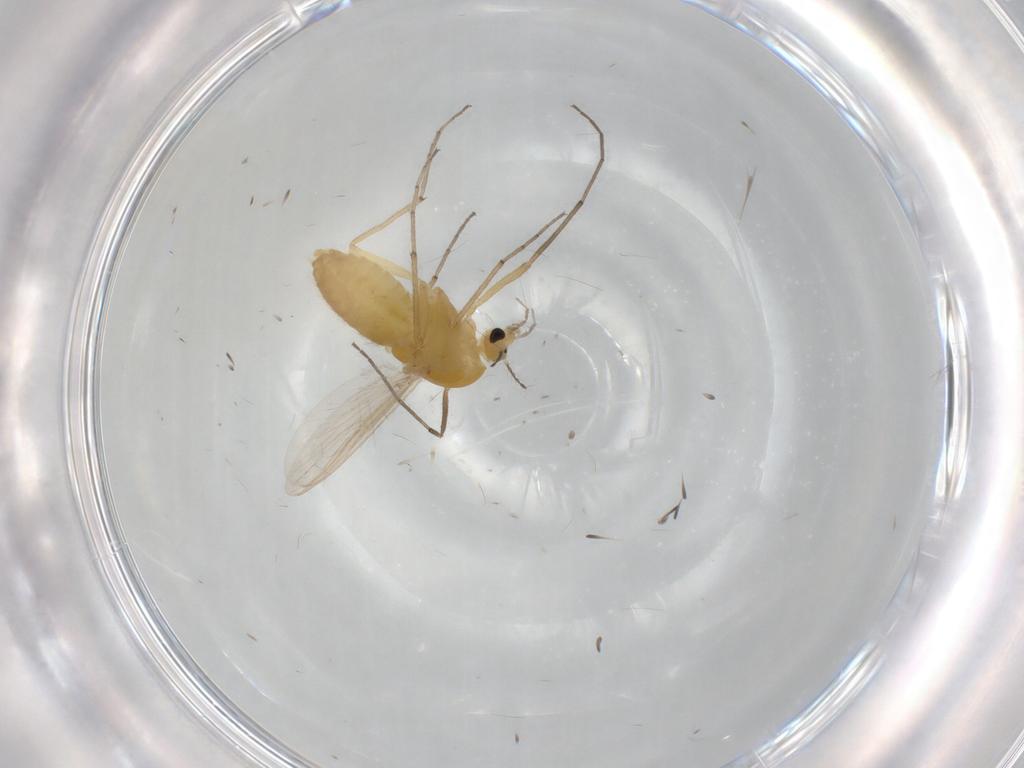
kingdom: Animalia
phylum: Arthropoda
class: Insecta
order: Diptera
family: Chironomidae
